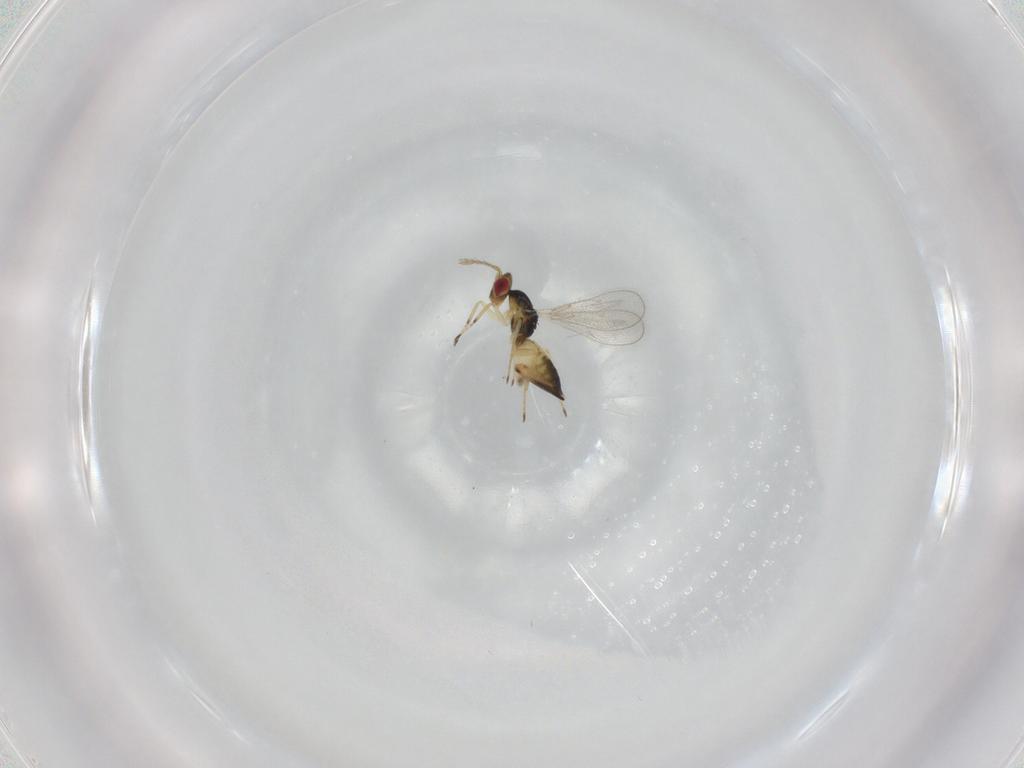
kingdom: Animalia
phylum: Arthropoda
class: Insecta
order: Hymenoptera
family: Eulophidae
